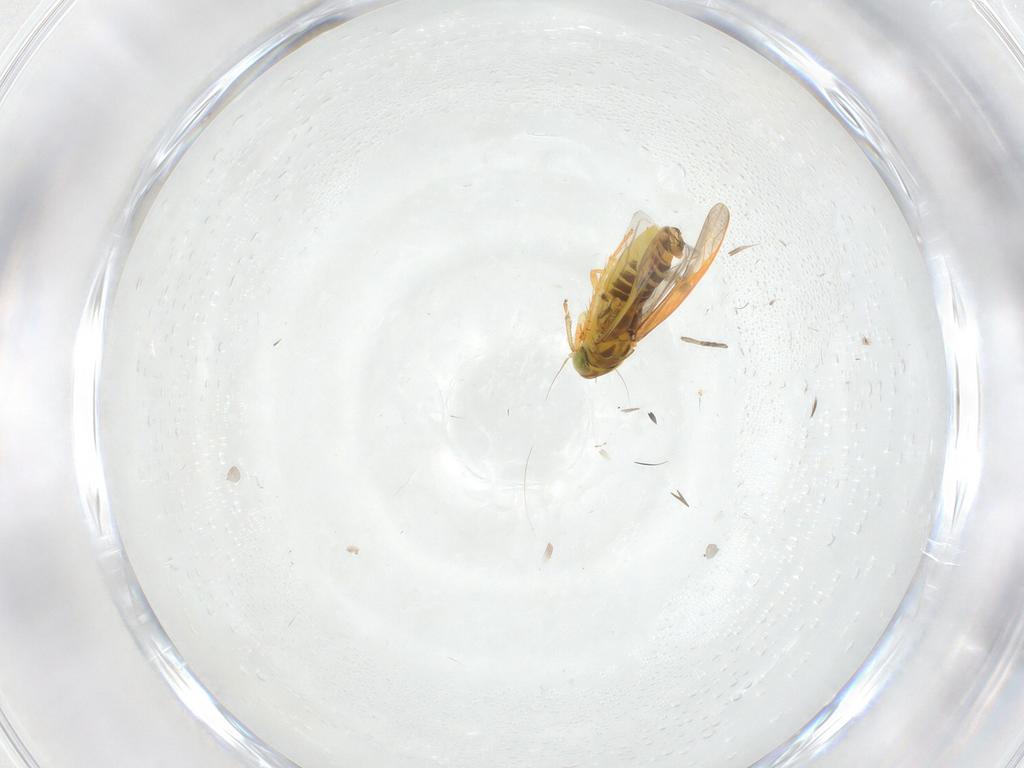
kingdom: Animalia
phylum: Arthropoda
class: Insecta
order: Hemiptera
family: Cicadellidae
